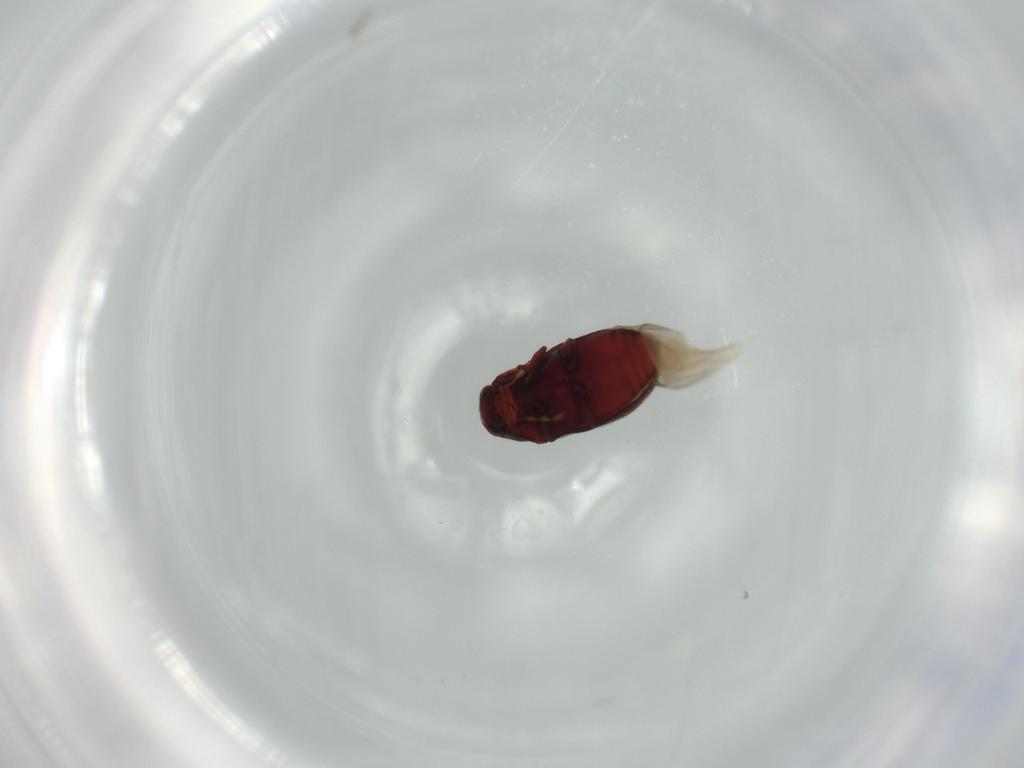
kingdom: Animalia
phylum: Arthropoda
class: Insecta
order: Coleoptera
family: Ptinidae
